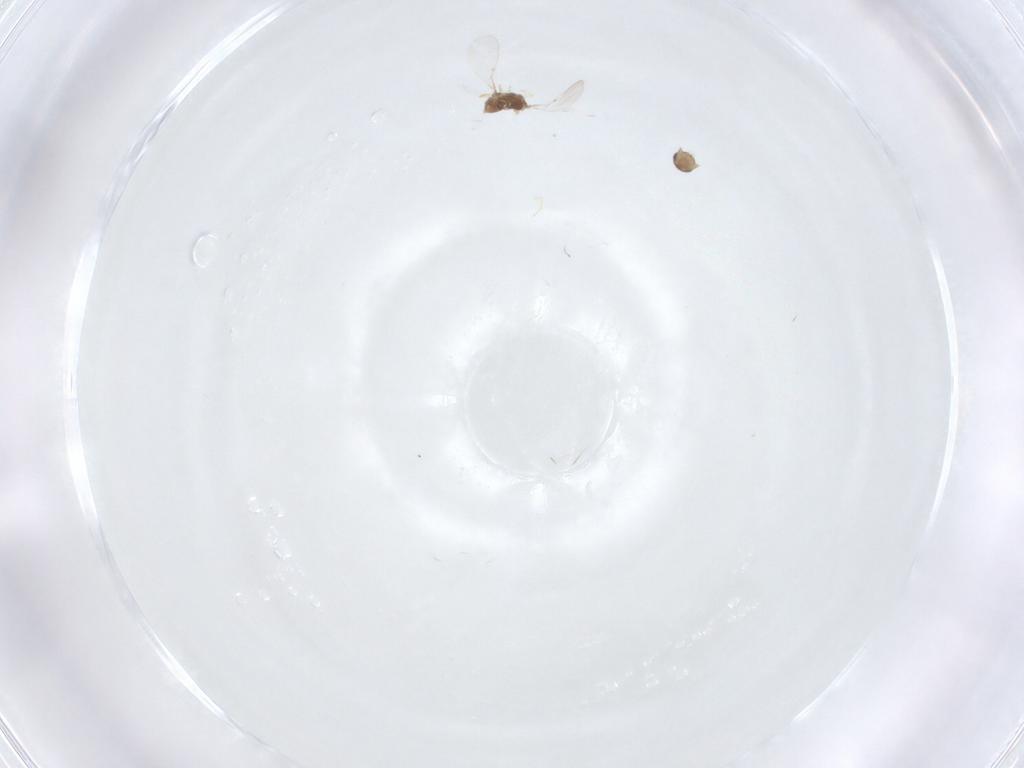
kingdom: Animalia
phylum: Arthropoda
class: Insecta
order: Hymenoptera
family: Encyrtidae
